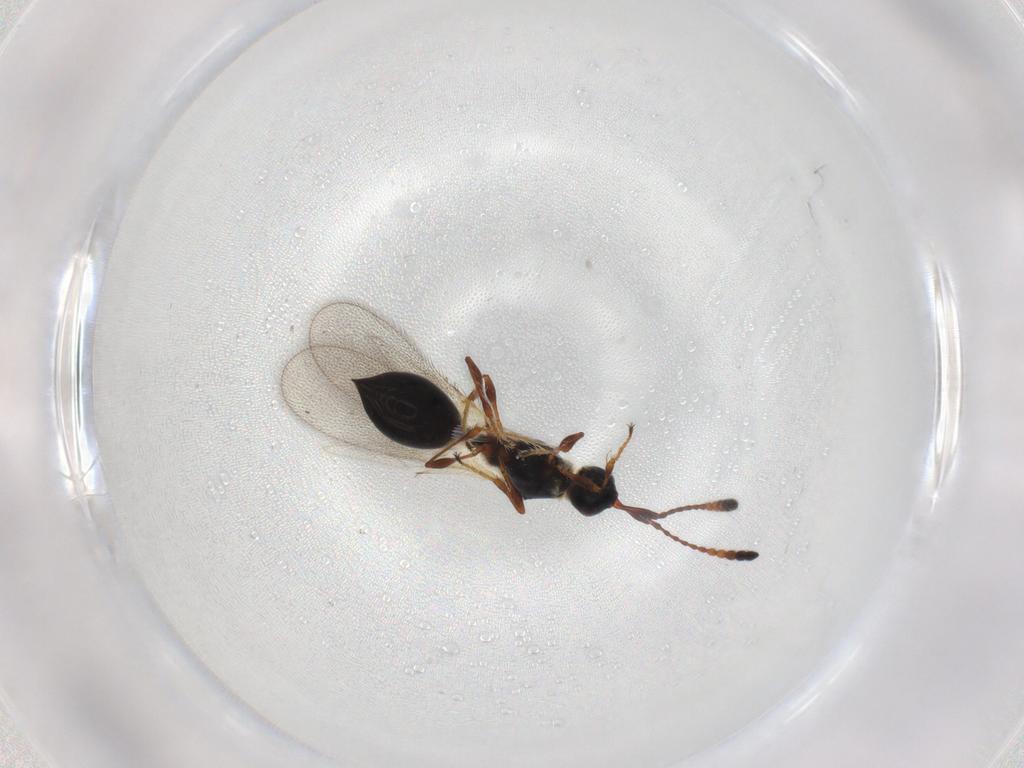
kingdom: Animalia
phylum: Arthropoda
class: Insecta
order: Hymenoptera
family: Diapriidae
